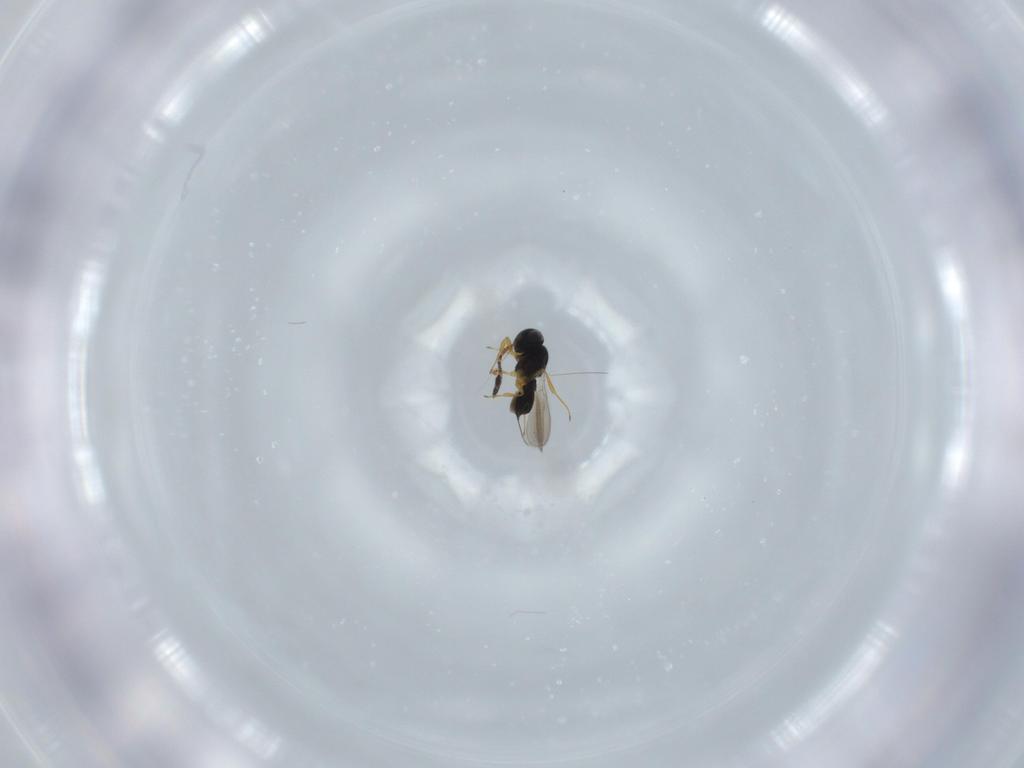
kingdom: Animalia
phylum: Arthropoda
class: Insecta
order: Hymenoptera
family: Scelionidae
